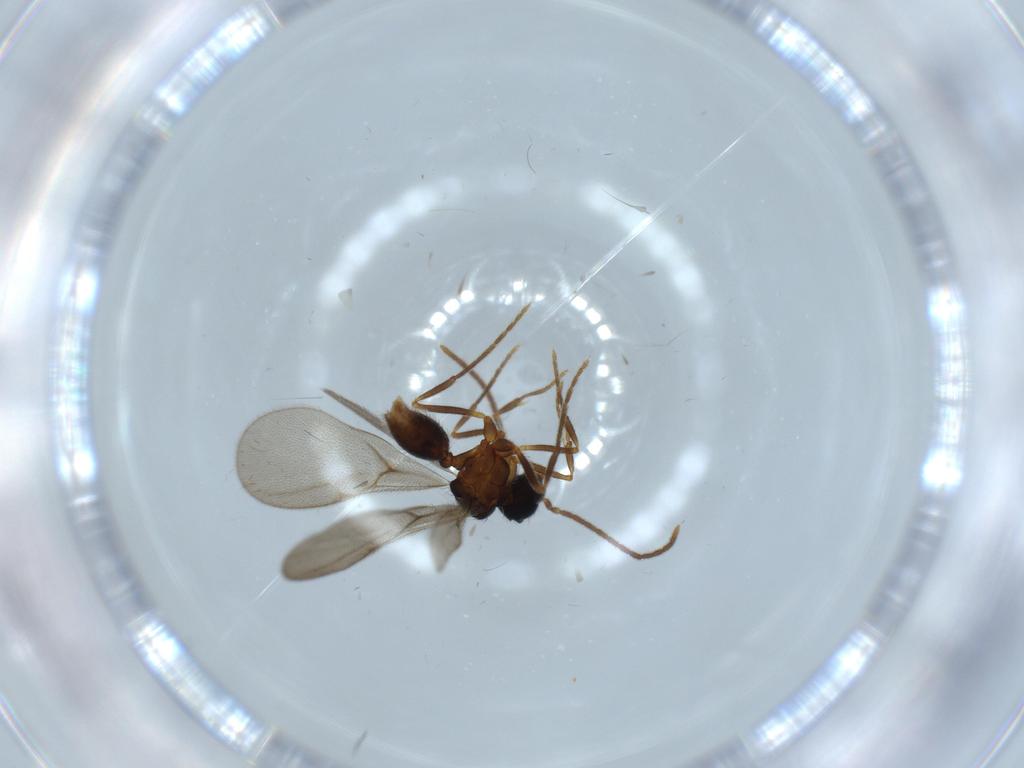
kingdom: Animalia
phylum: Arthropoda
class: Insecta
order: Hymenoptera
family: Formicidae
